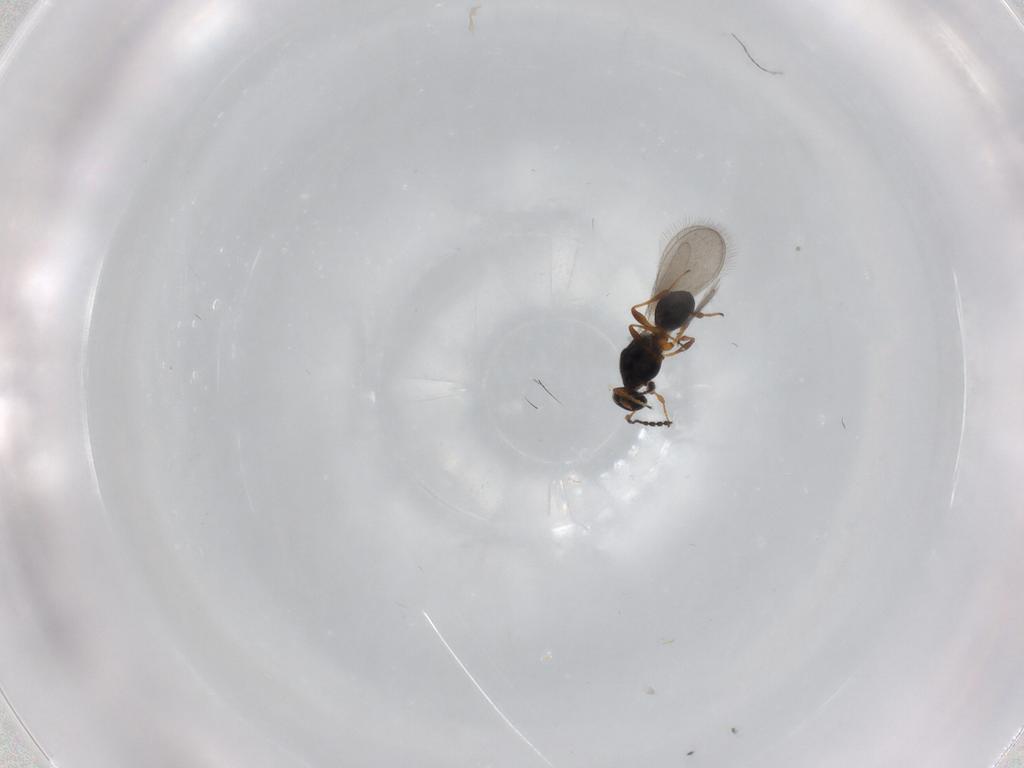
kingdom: Animalia
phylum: Arthropoda
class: Insecta
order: Hymenoptera
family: Platygastridae
